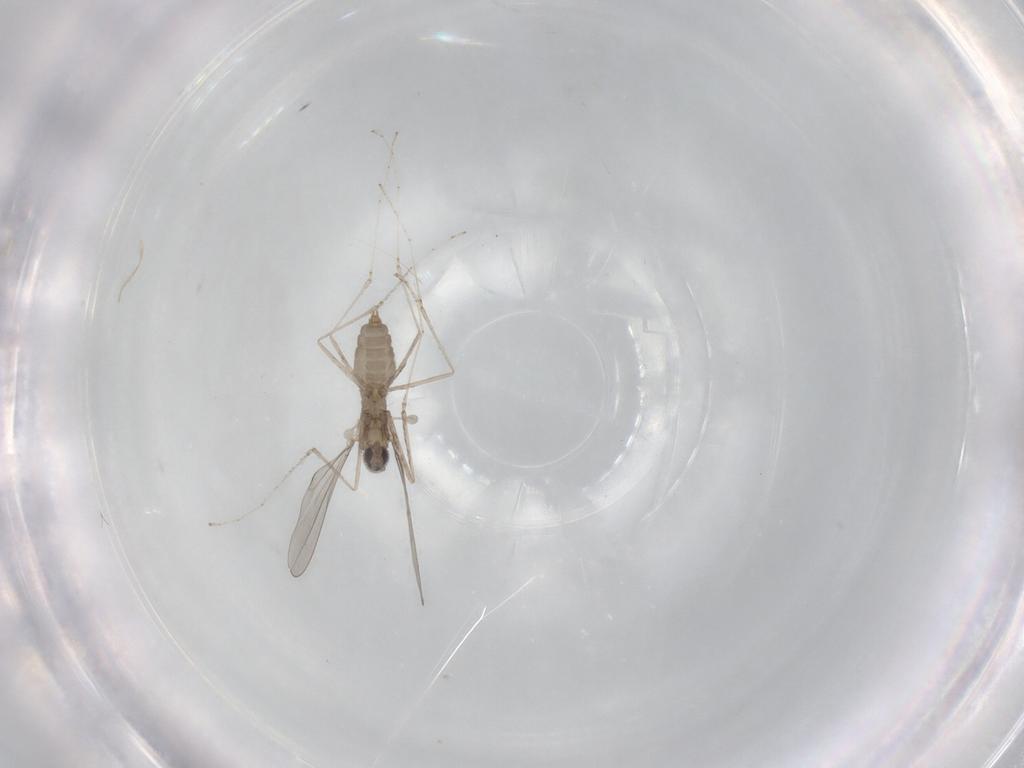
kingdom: Animalia
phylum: Arthropoda
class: Insecta
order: Diptera
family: Cecidomyiidae
